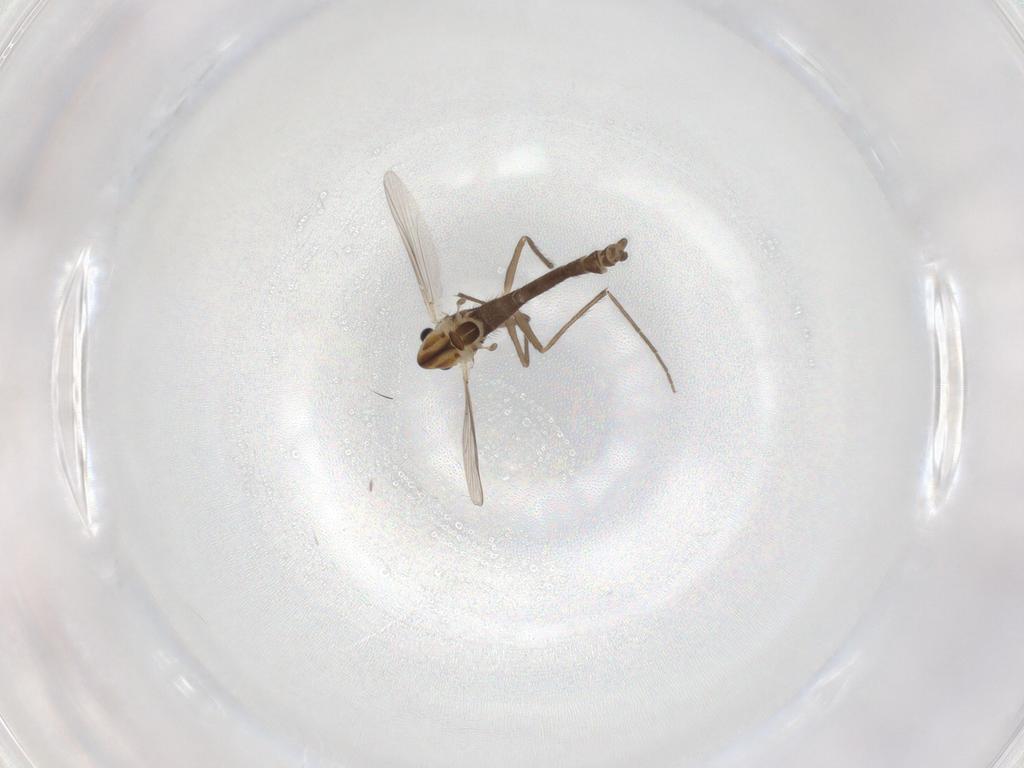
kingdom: Animalia
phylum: Arthropoda
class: Insecta
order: Diptera
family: Chironomidae
